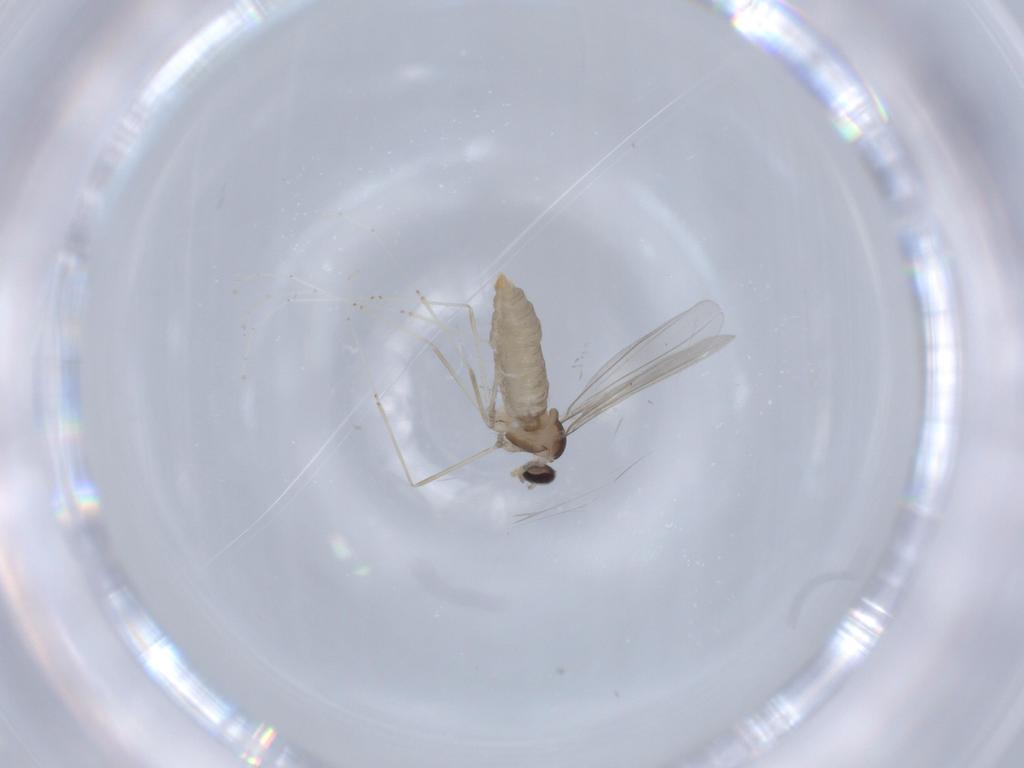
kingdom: Animalia
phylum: Arthropoda
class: Insecta
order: Diptera
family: Cecidomyiidae
